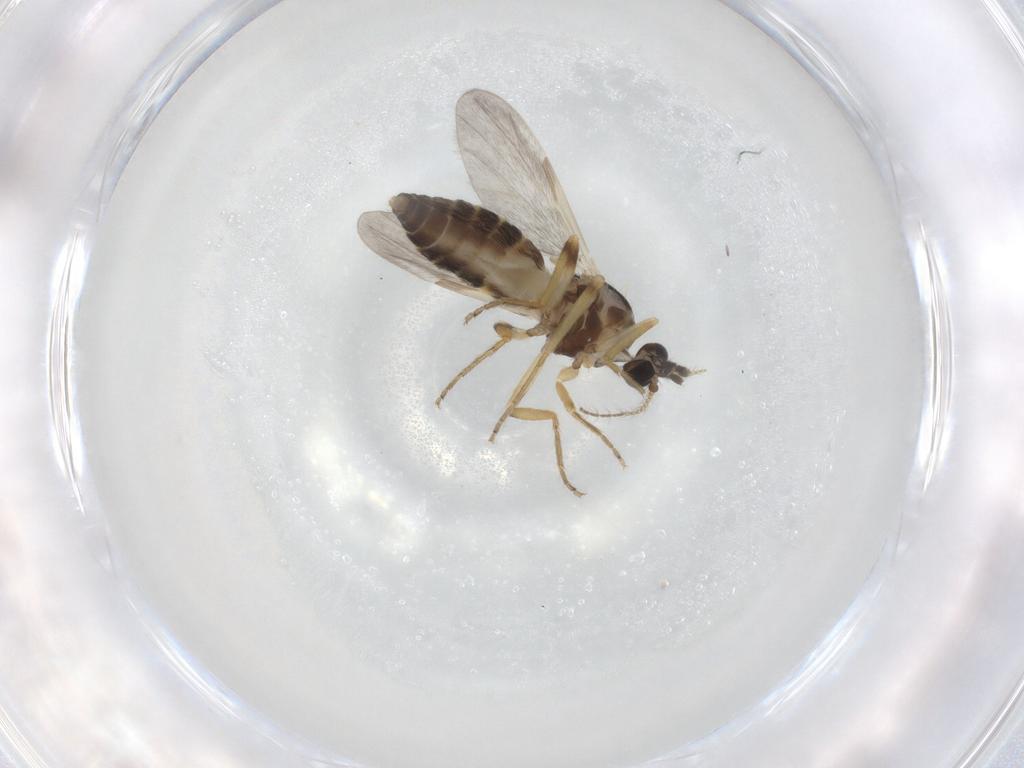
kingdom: Animalia
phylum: Arthropoda
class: Insecta
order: Diptera
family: Ceratopogonidae
